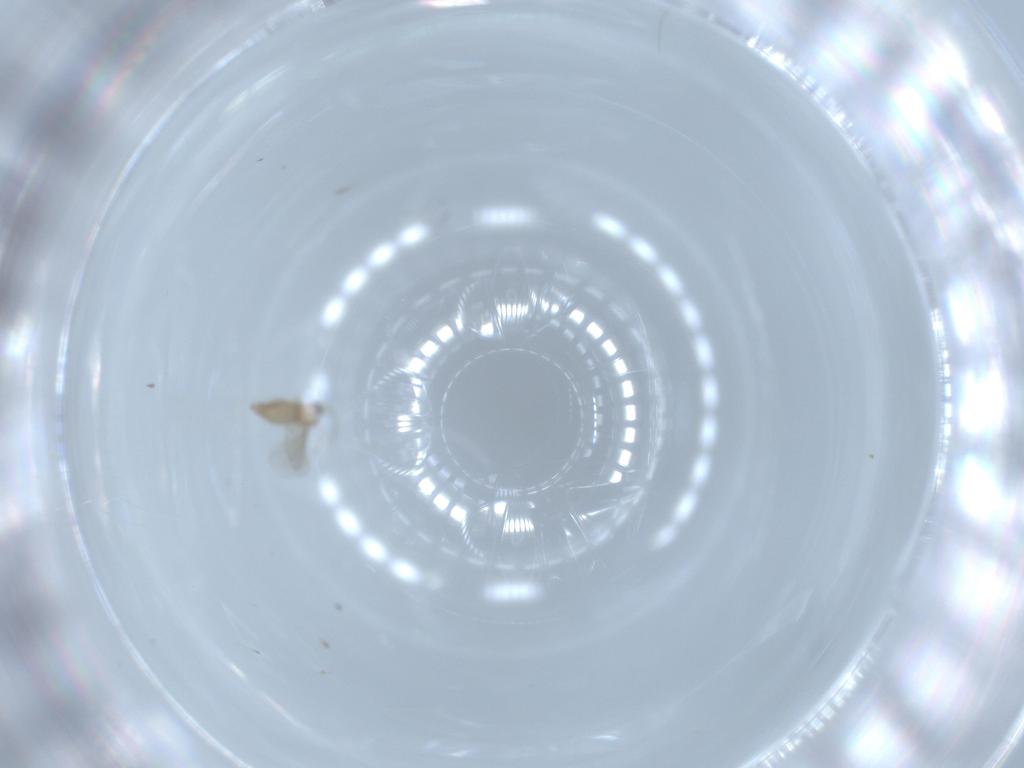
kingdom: Animalia
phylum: Arthropoda
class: Insecta
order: Diptera
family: Cecidomyiidae
